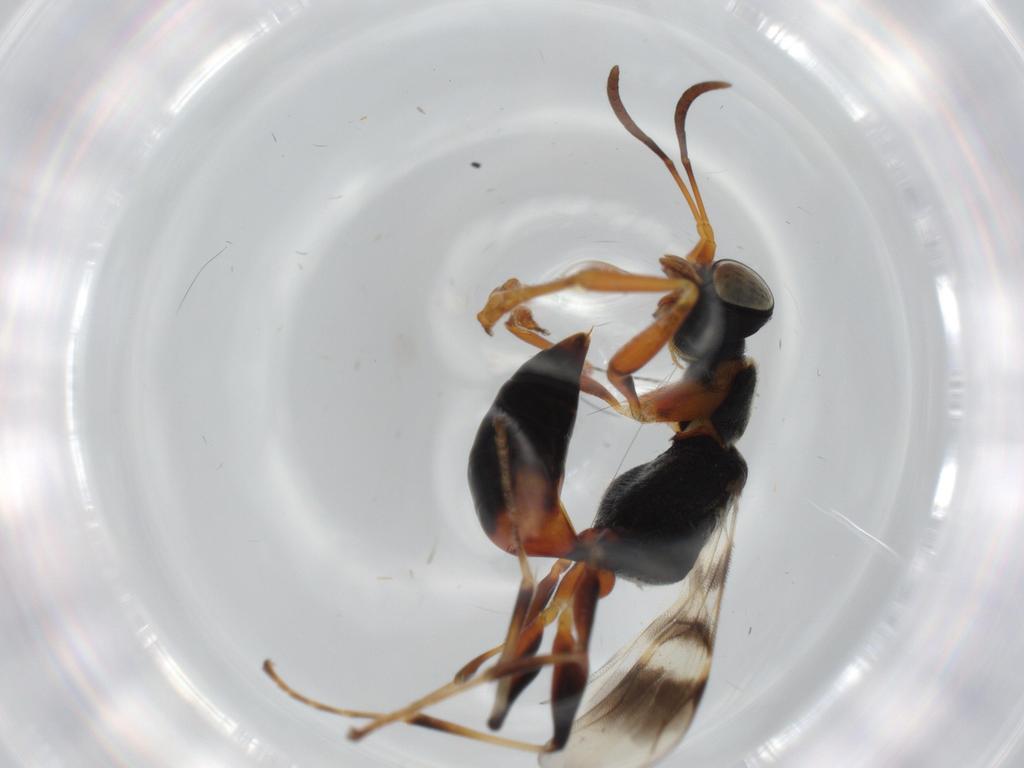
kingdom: Animalia
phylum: Arthropoda
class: Insecta
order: Hymenoptera
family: Dryinidae
